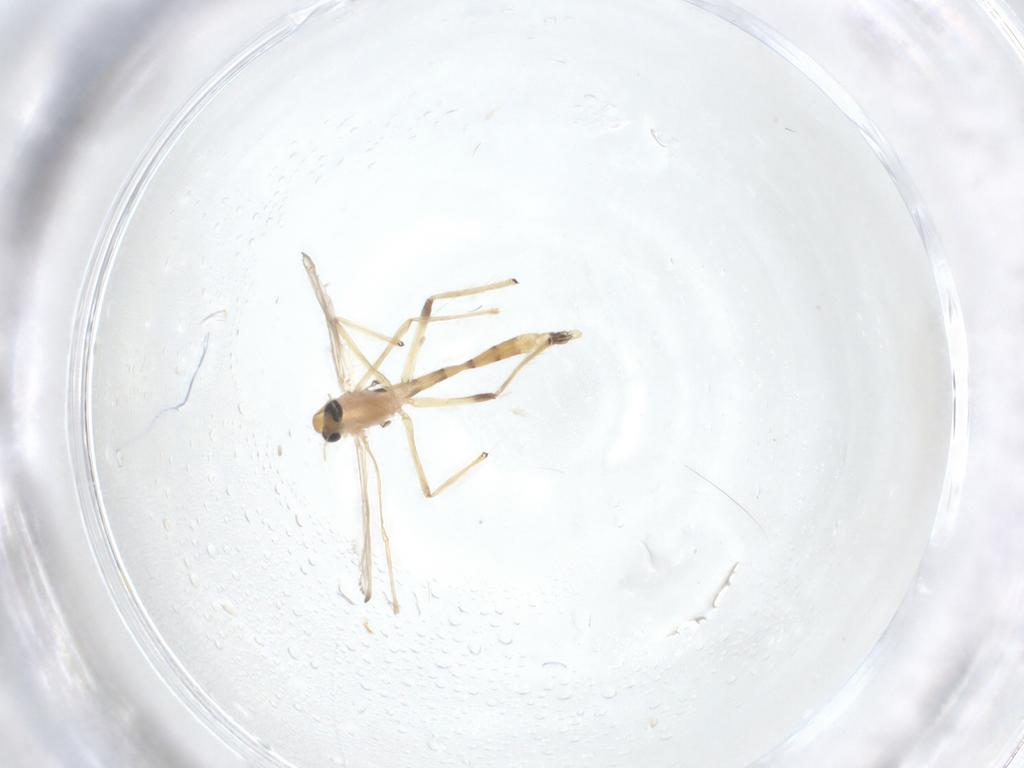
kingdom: Animalia
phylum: Arthropoda
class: Insecta
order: Diptera
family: Chironomidae
